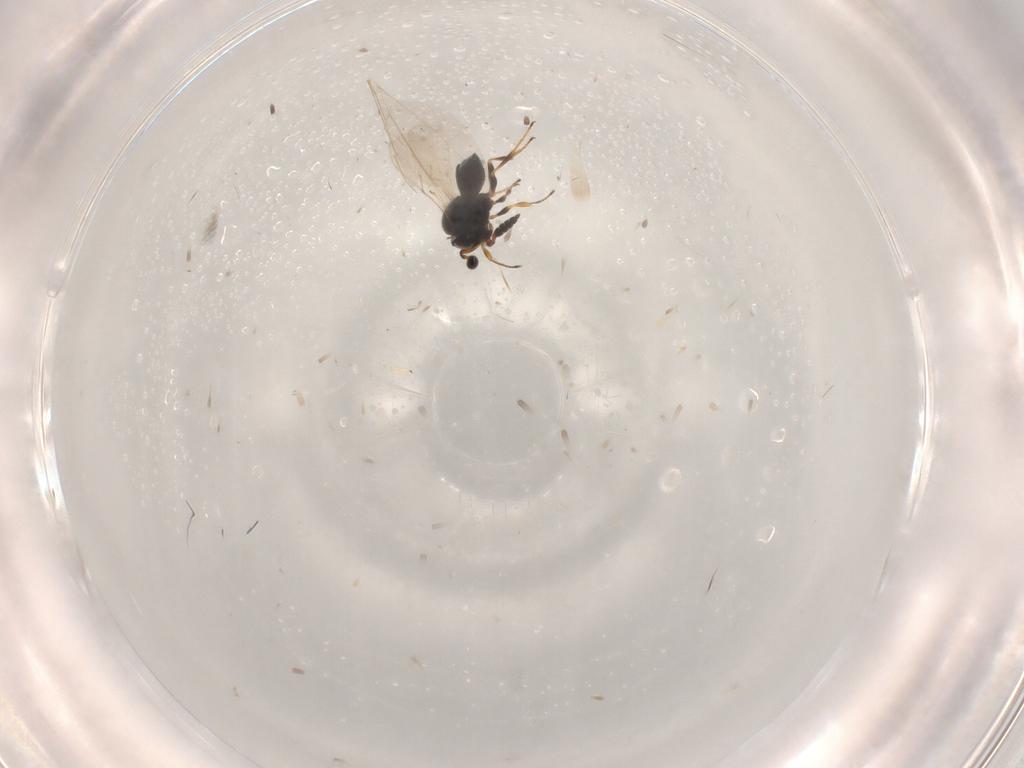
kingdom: Animalia
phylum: Arthropoda
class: Insecta
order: Hymenoptera
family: Scelionidae
